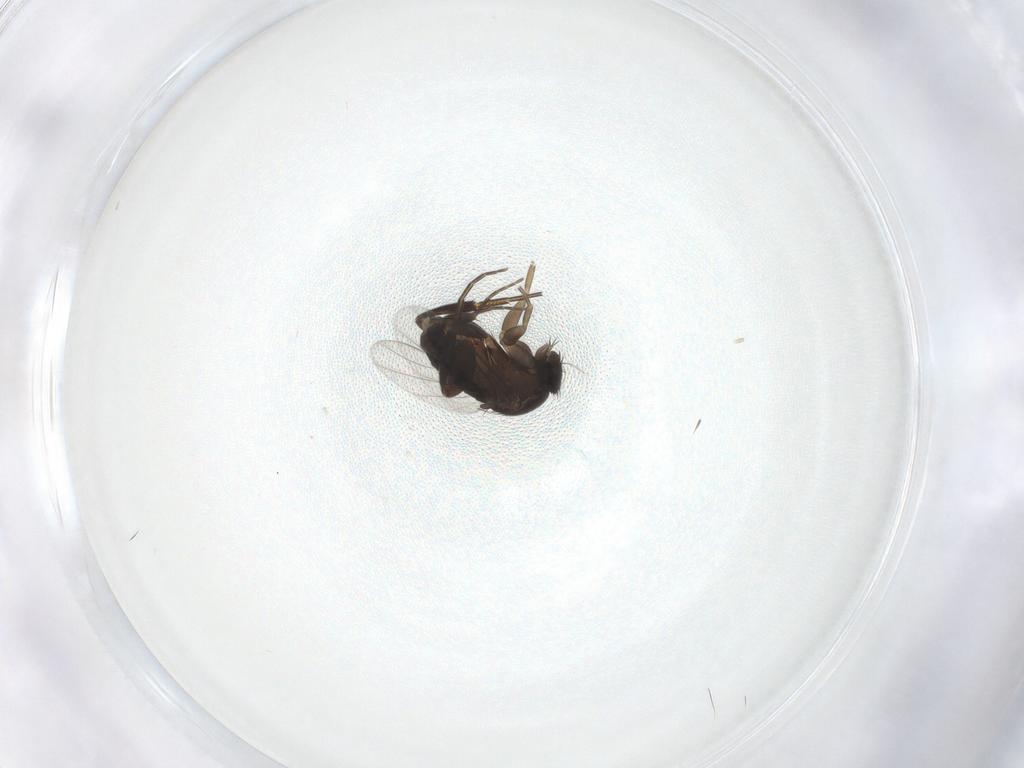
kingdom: Animalia
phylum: Arthropoda
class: Insecta
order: Diptera
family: Phoridae
